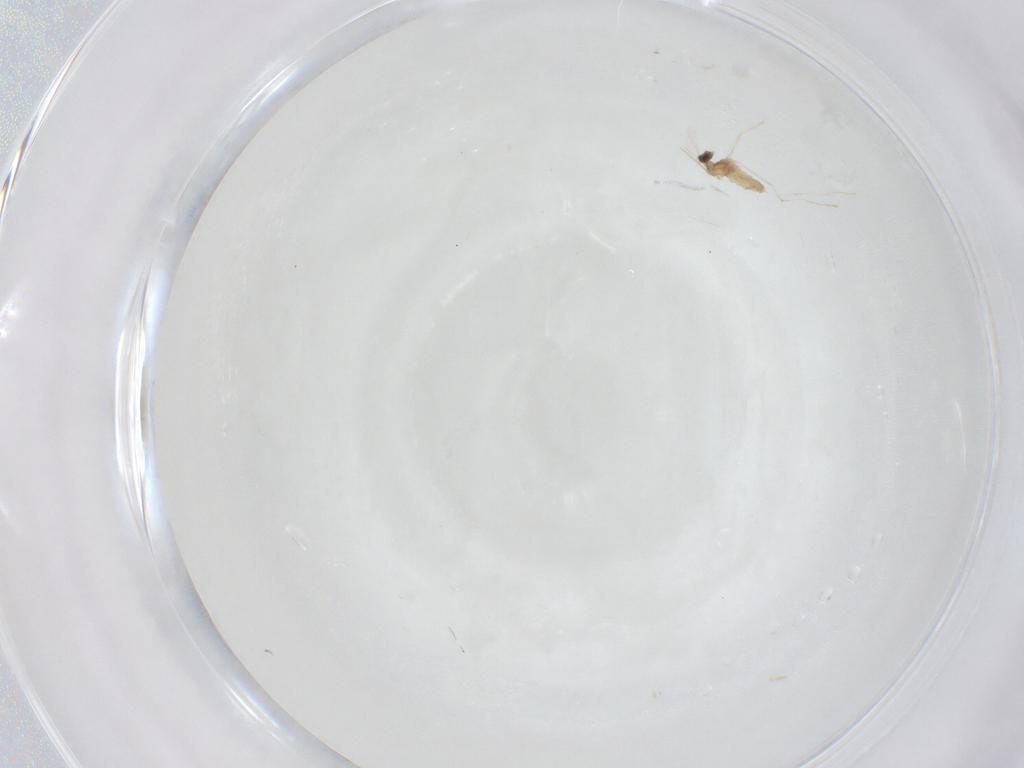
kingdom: Animalia
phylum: Arthropoda
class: Insecta
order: Diptera
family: Cecidomyiidae
